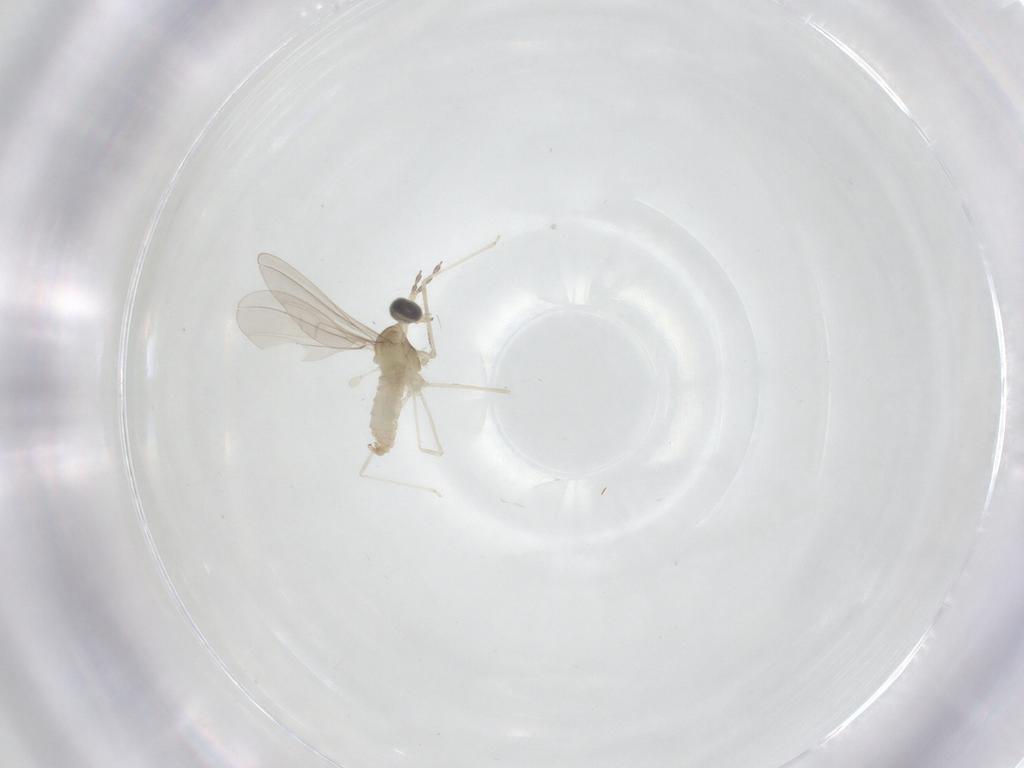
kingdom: Animalia
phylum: Arthropoda
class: Insecta
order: Diptera
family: Cecidomyiidae
